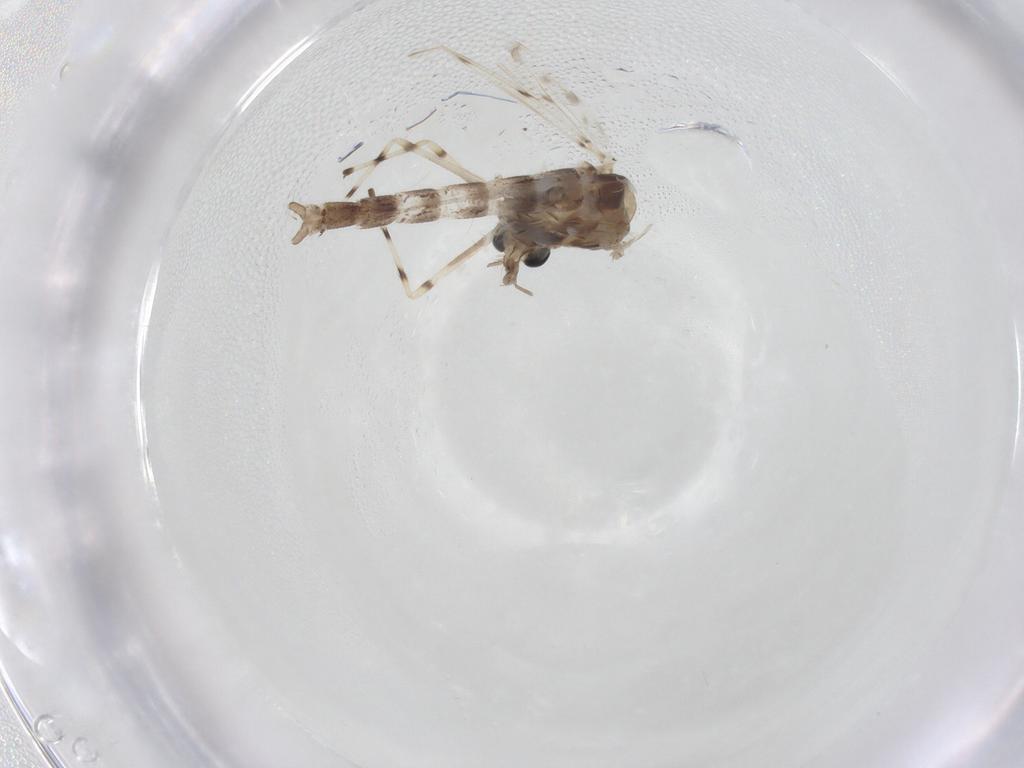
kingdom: Animalia
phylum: Arthropoda
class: Insecta
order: Diptera
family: Chironomidae
